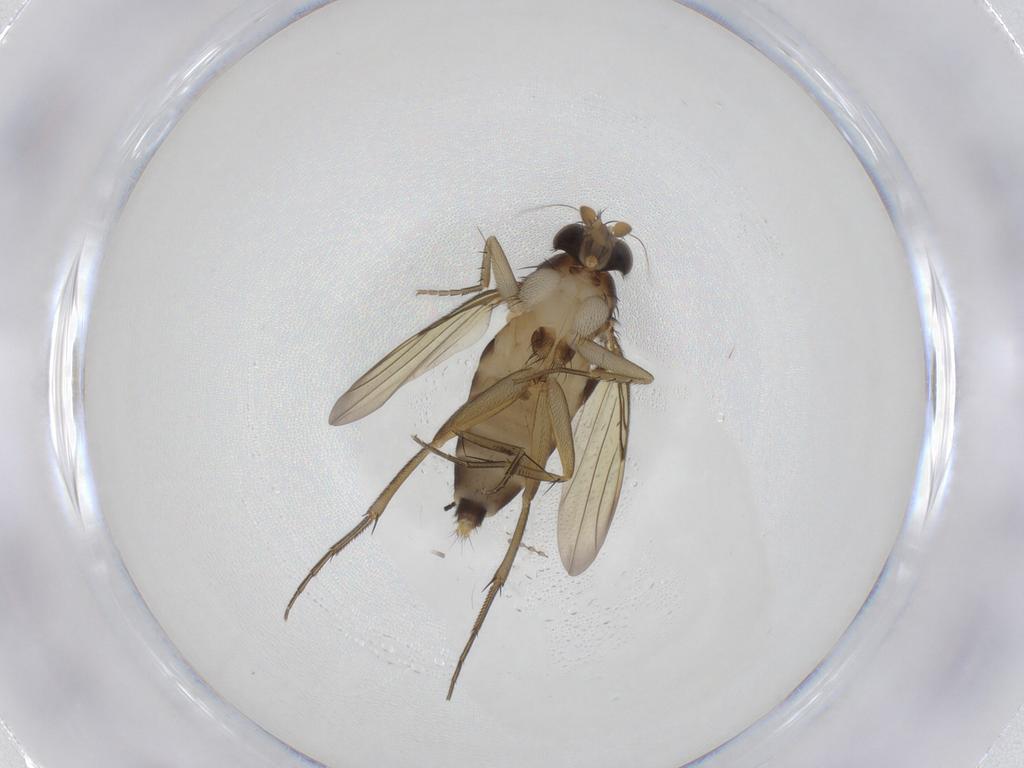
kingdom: Animalia
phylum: Arthropoda
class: Insecta
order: Diptera
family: Phoridae
